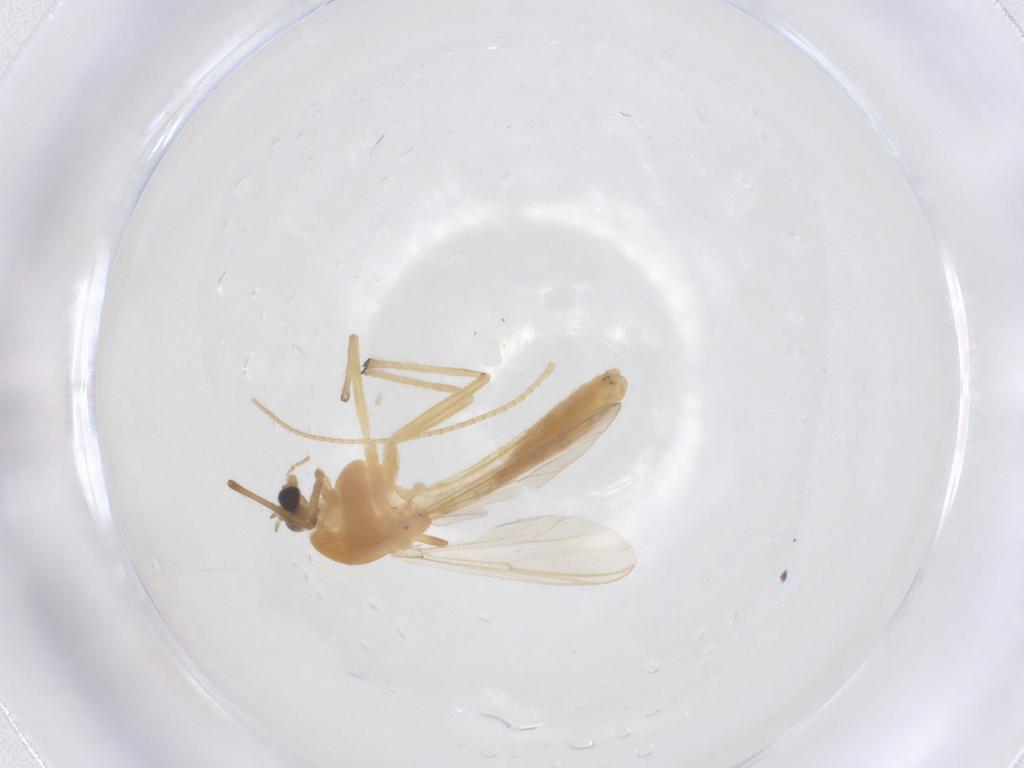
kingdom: Animalia
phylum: Arthropoda
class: Insecta
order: Diptera
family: Chironomidae
